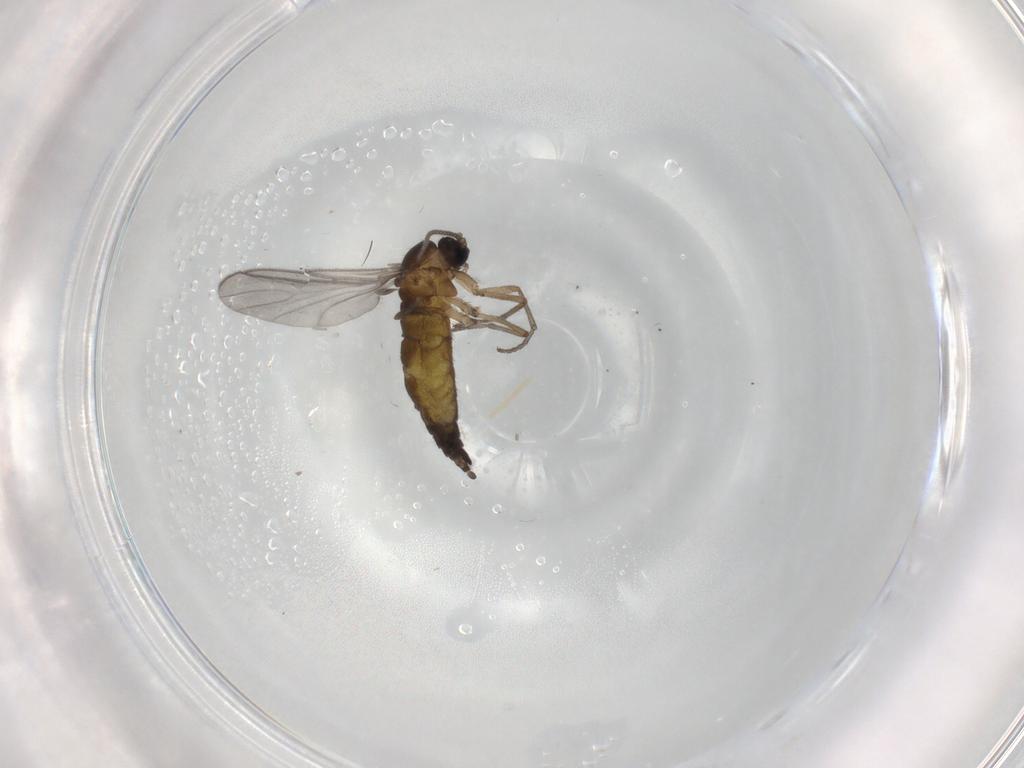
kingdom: Animalia
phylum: Arthropoda
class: Insecta
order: Diptera
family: Sciaridae
